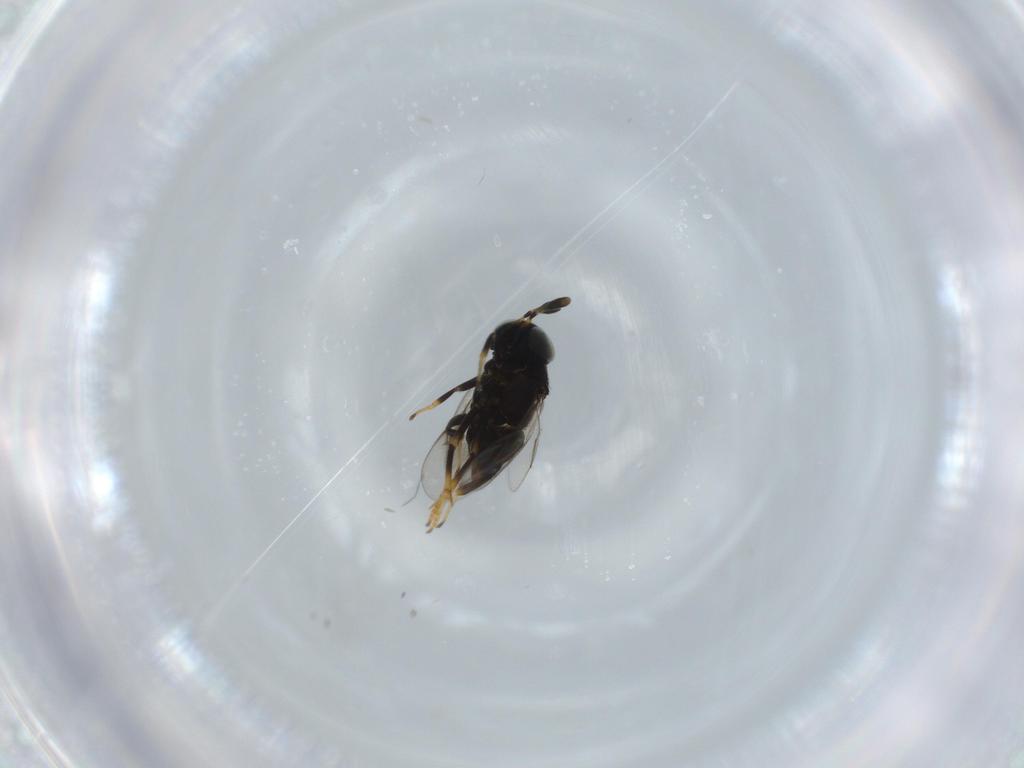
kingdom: Animalia
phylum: Arthropoda
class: Insecta
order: Hymenoptera
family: Encyrtidae
